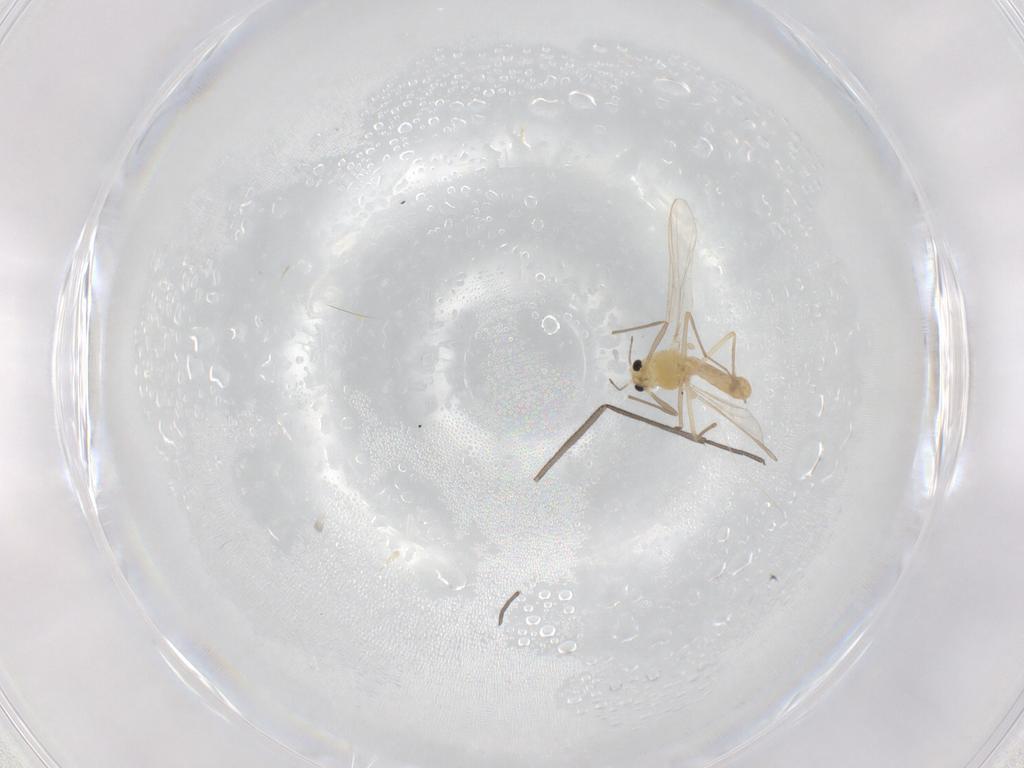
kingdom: Animalia
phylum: Arthropoda
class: Insecta
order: Diptera
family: Chironomidae
